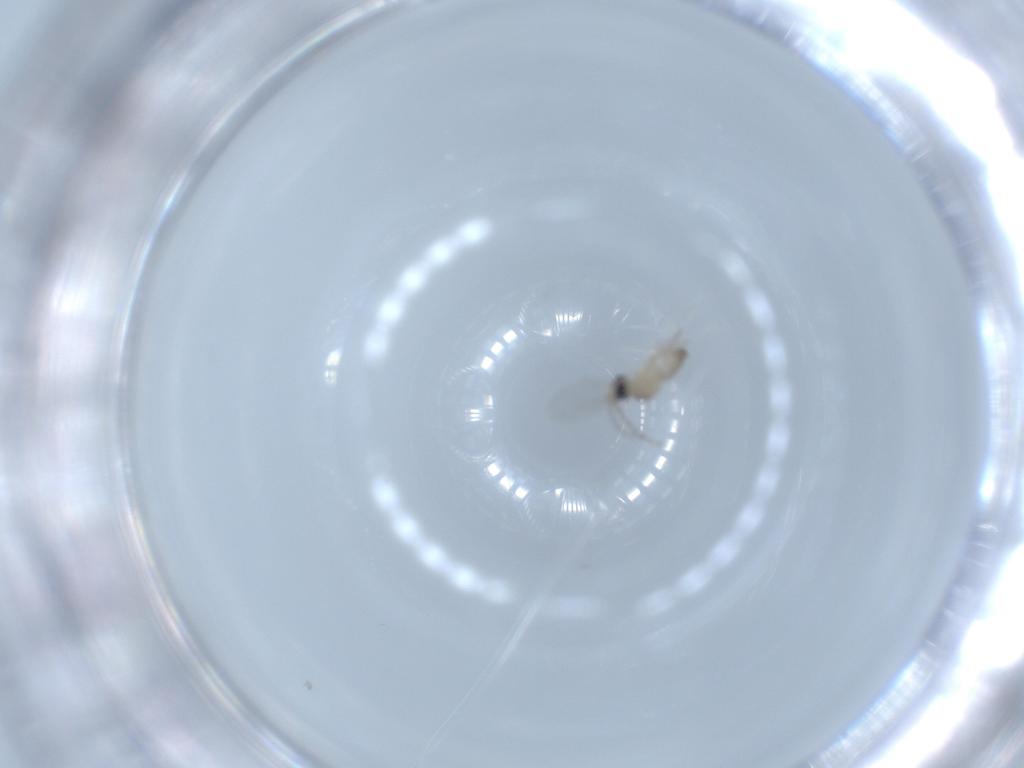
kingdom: Animalia
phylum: Arthropoda
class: Insecta
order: Diptera
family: Cecidomyiidae
